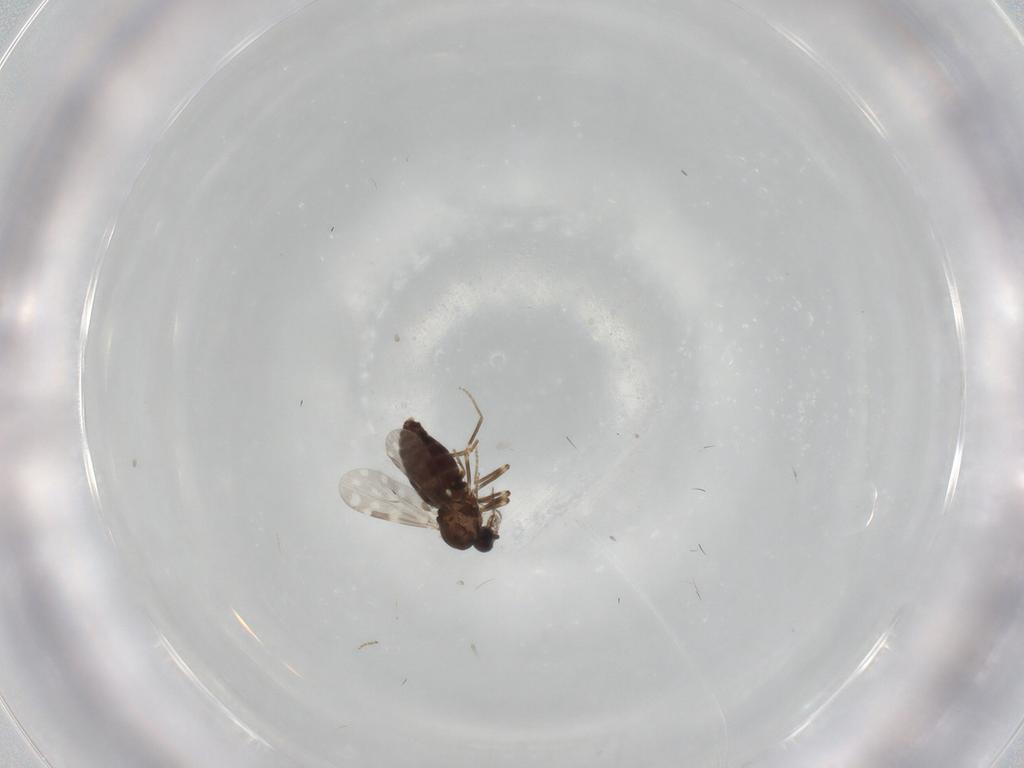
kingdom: Animalia
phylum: Arthropoda
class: Insecta
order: Diptera
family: Ceratopogonidae
